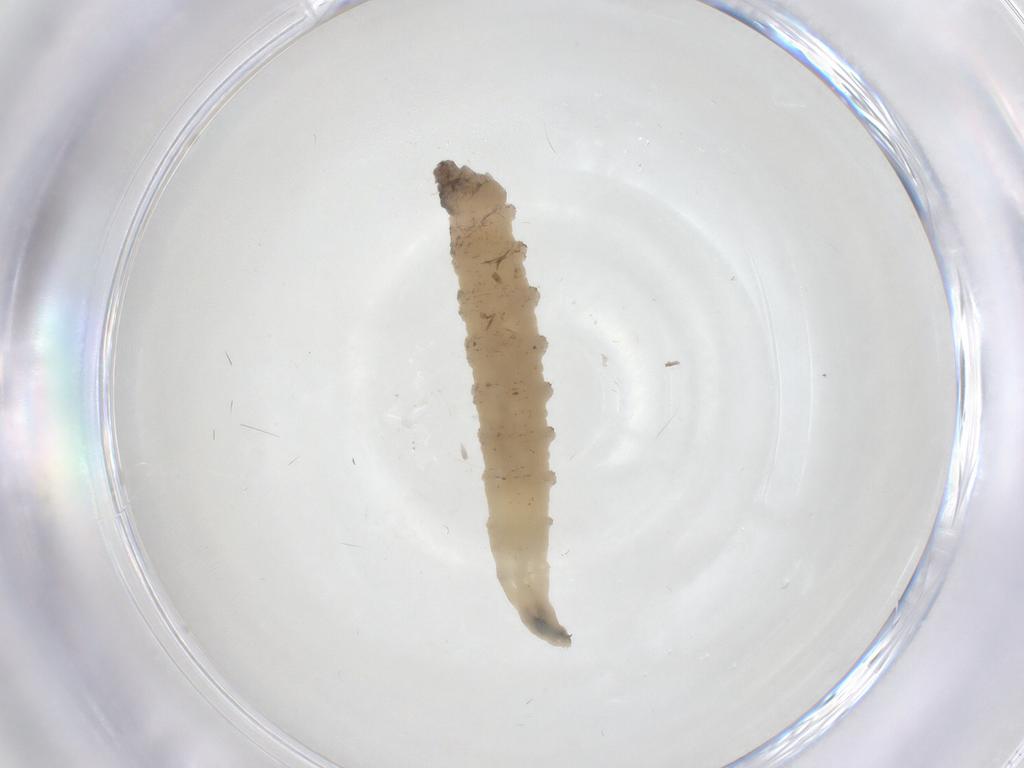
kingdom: Animalia
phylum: Arthropoda
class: Insecta
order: Diptera
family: Drosophilidae
